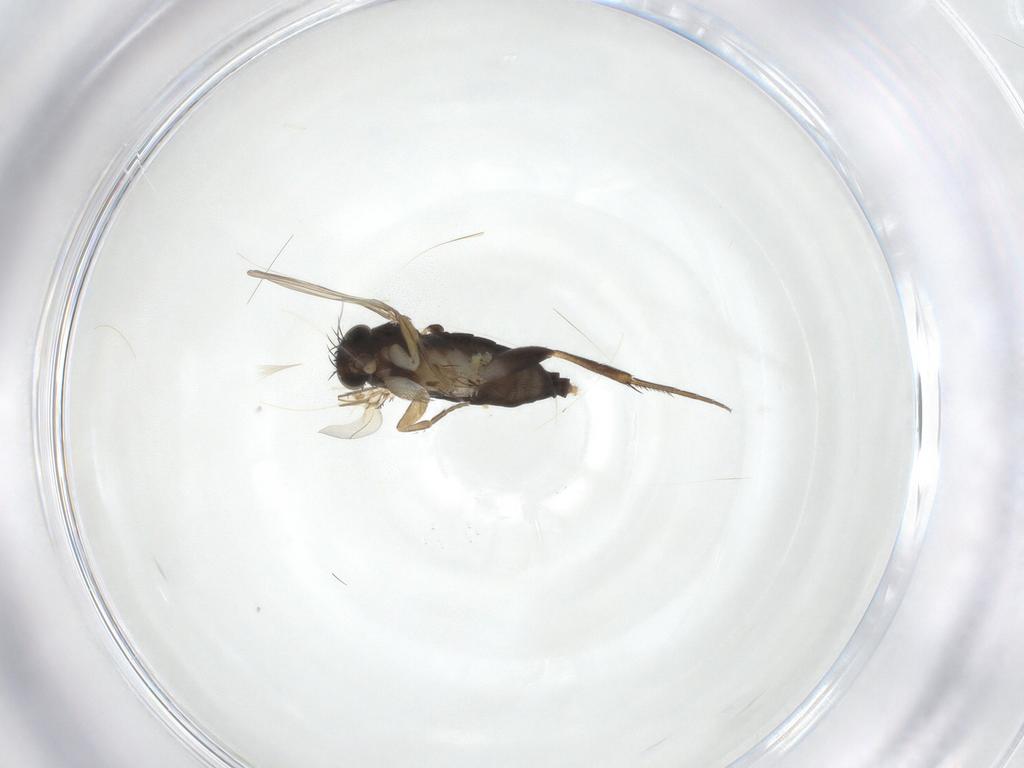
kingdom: Animalia
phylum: Arthropoda
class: Insecta
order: Diptera
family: Phoridae
